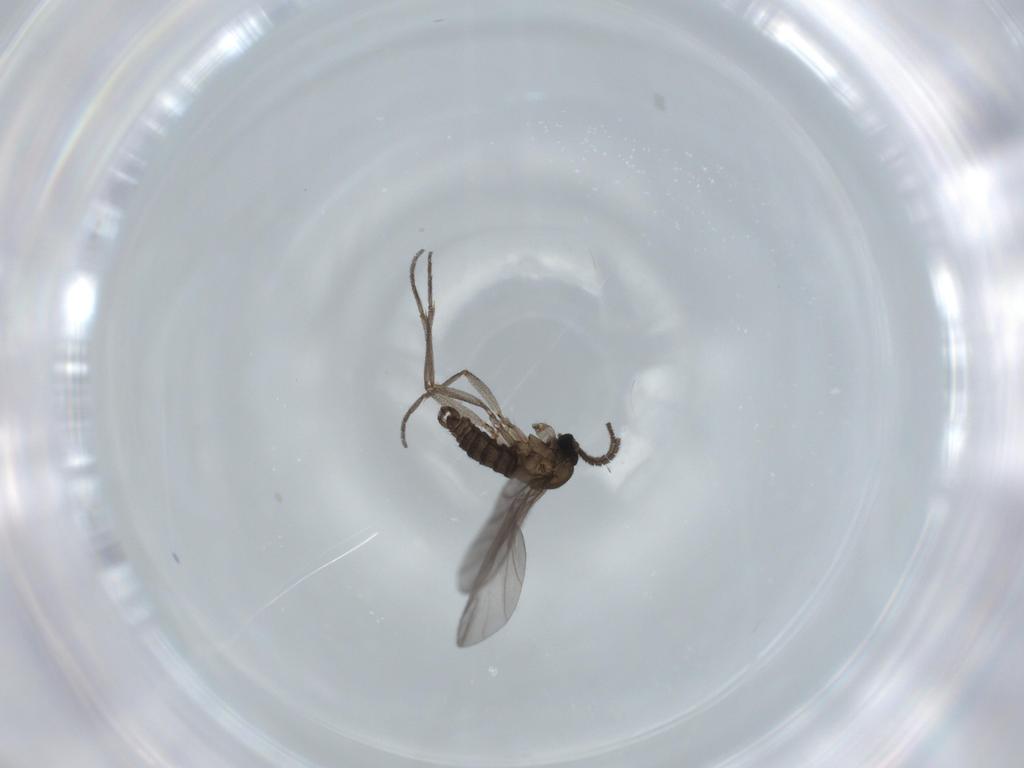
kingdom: Animalia
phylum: Arthropoda
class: Insecta
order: Diptera
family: Sciaridae
